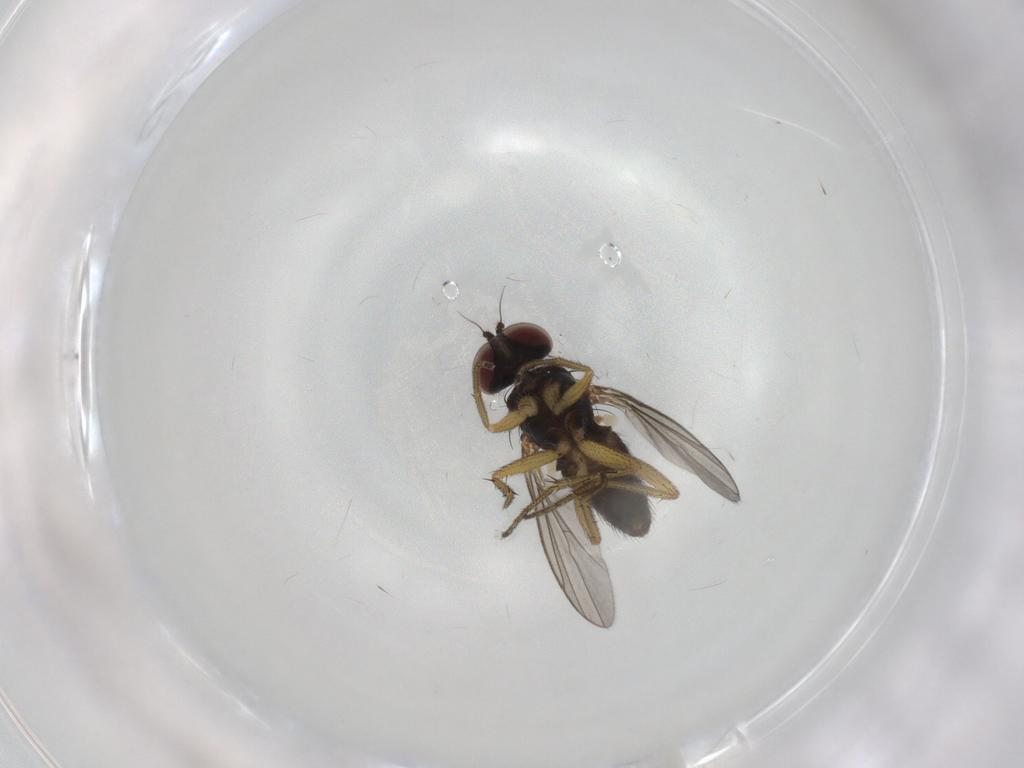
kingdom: Animalia
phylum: Arthropoda
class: Insecta
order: Diptera
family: Dolichopodidae
